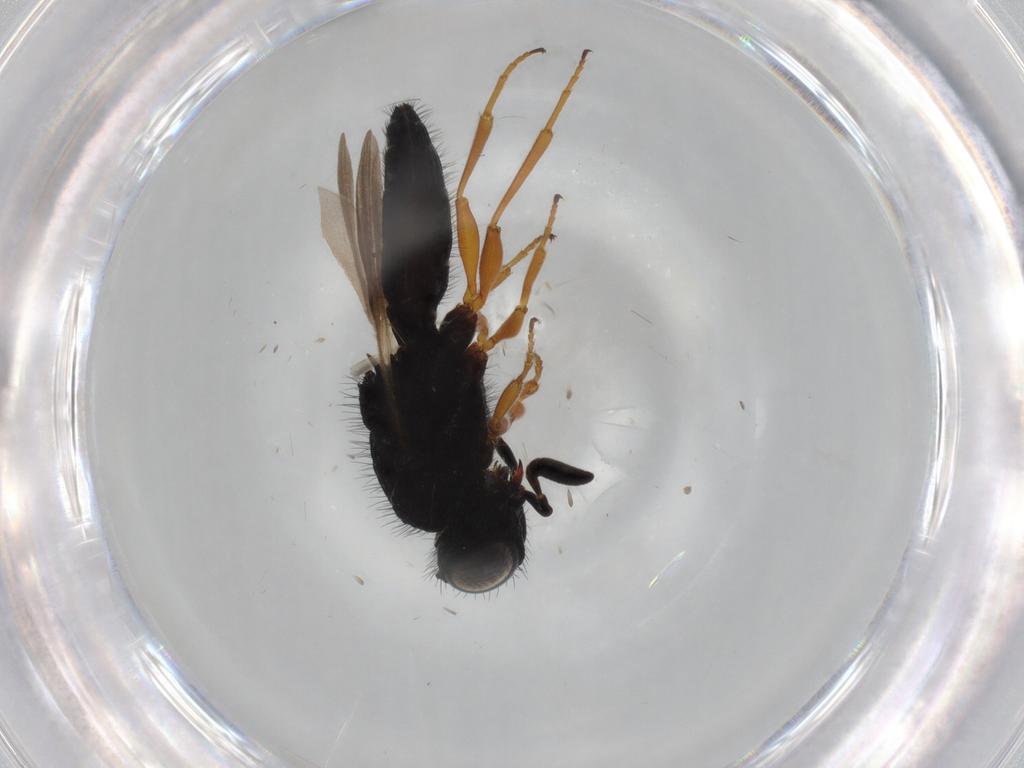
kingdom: Animalia
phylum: Arthropoda
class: Insecta
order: Hymenoptera
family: Scelionidae
